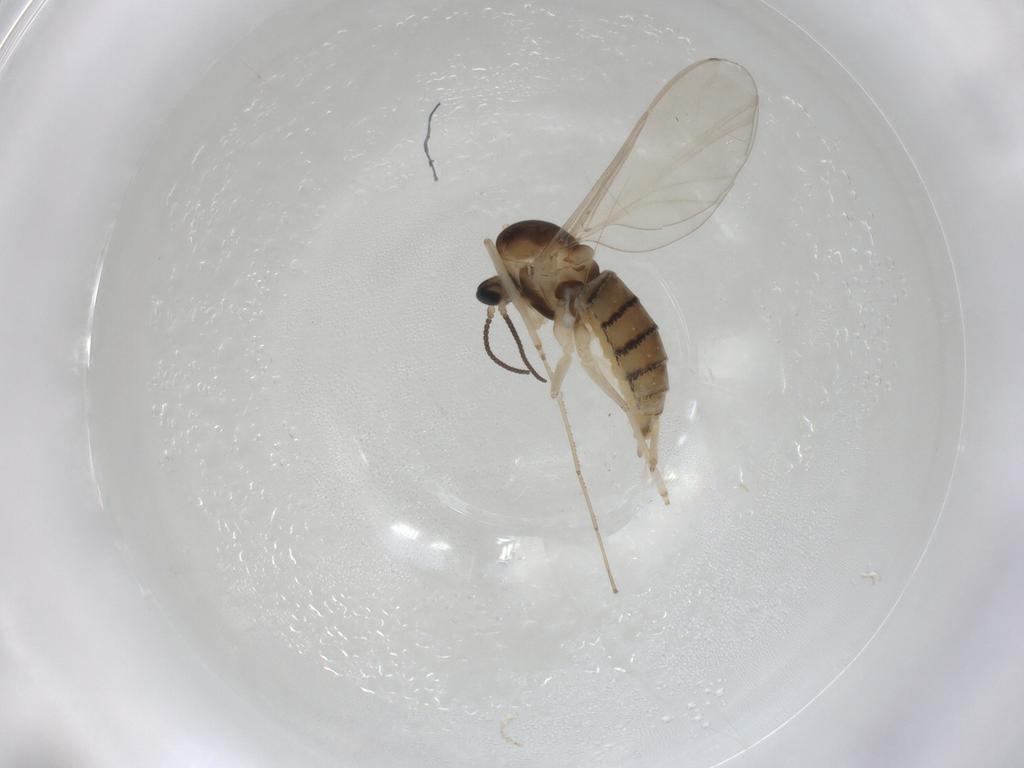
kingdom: Animalia
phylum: Arthropoda
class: Insecta
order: Diptera
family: Cecidomyiidae
